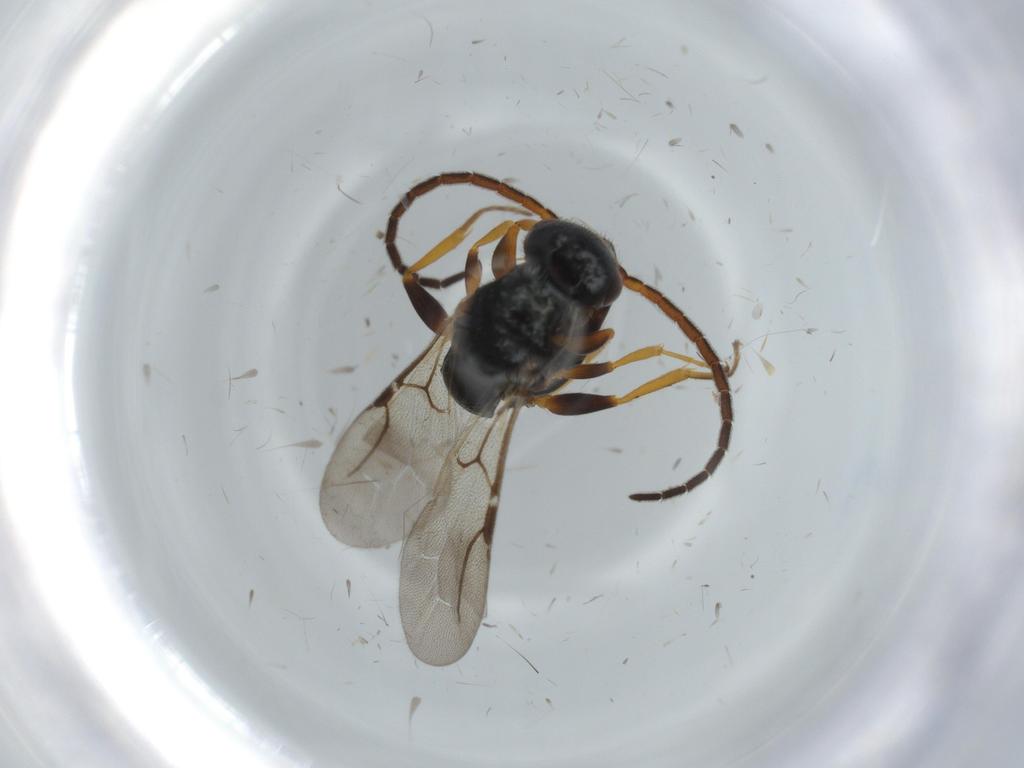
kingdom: Animalia
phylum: Arthropoda
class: Insecta
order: Hymenoptera
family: Bethylidae
